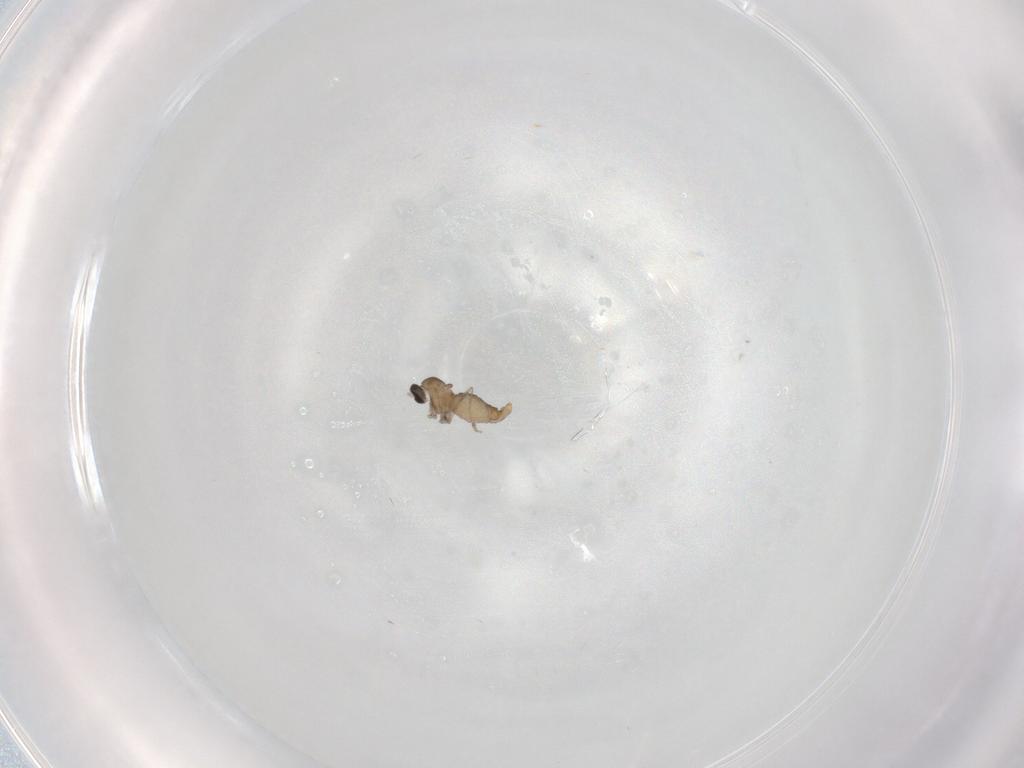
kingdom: Animalia
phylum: Arthropoda
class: Insecta
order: Diptera
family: Cecidomyiidae
